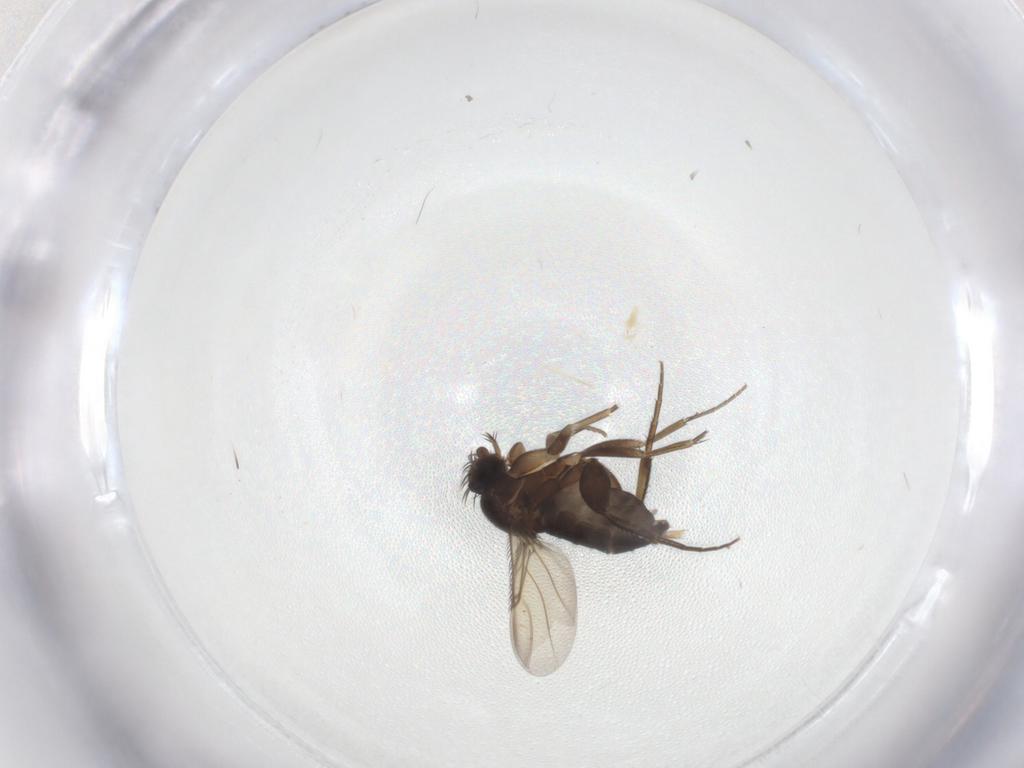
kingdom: Animalia
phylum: Arthropoda
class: Insecta
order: Diptera
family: Phoridae
